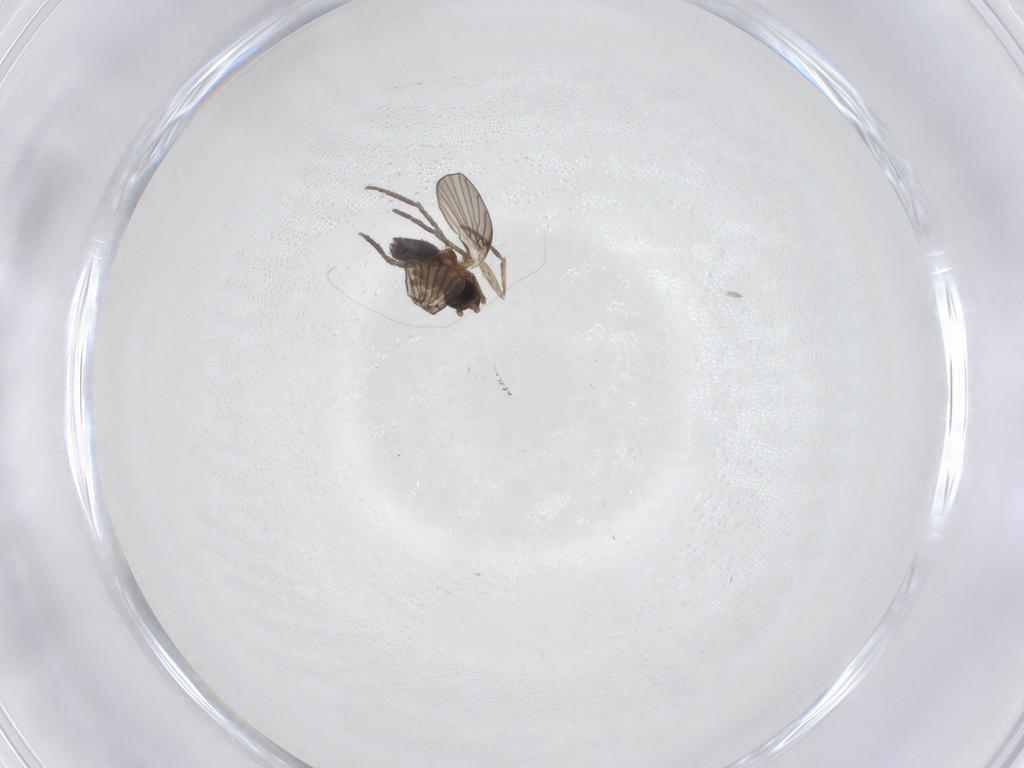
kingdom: Animalia
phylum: Arthropoda
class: Insecta
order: Diptera
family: Psychodidae
